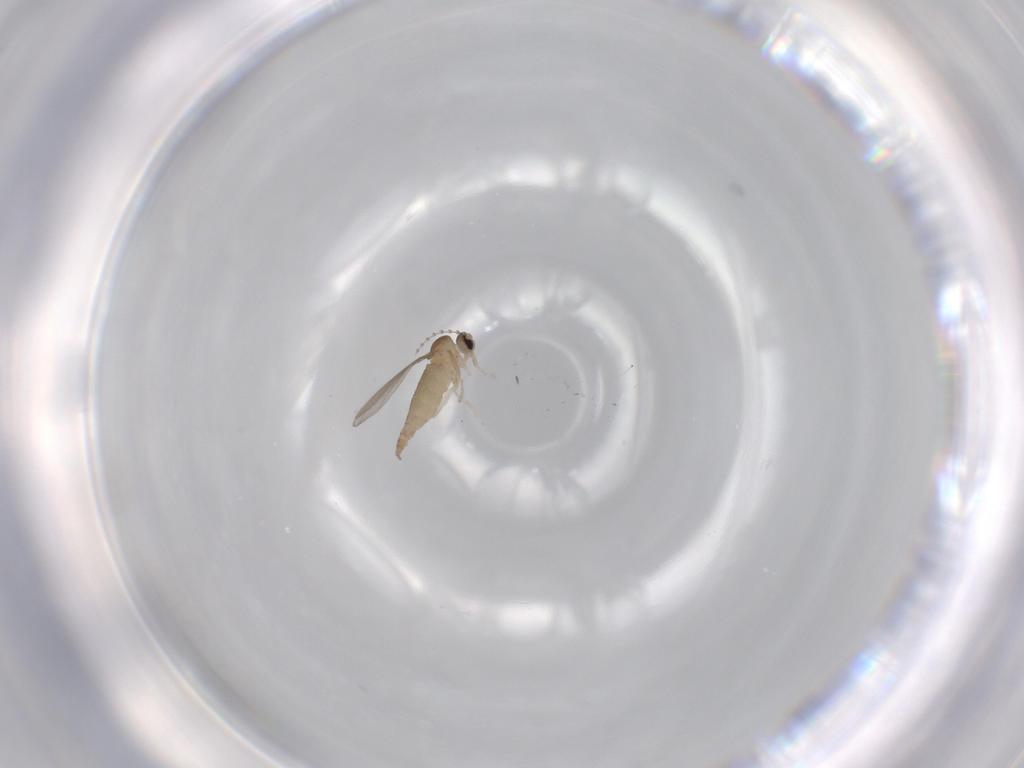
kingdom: Animalia
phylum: Arthropoda
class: Insecta
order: Diptera
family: Cecidomyiidae
